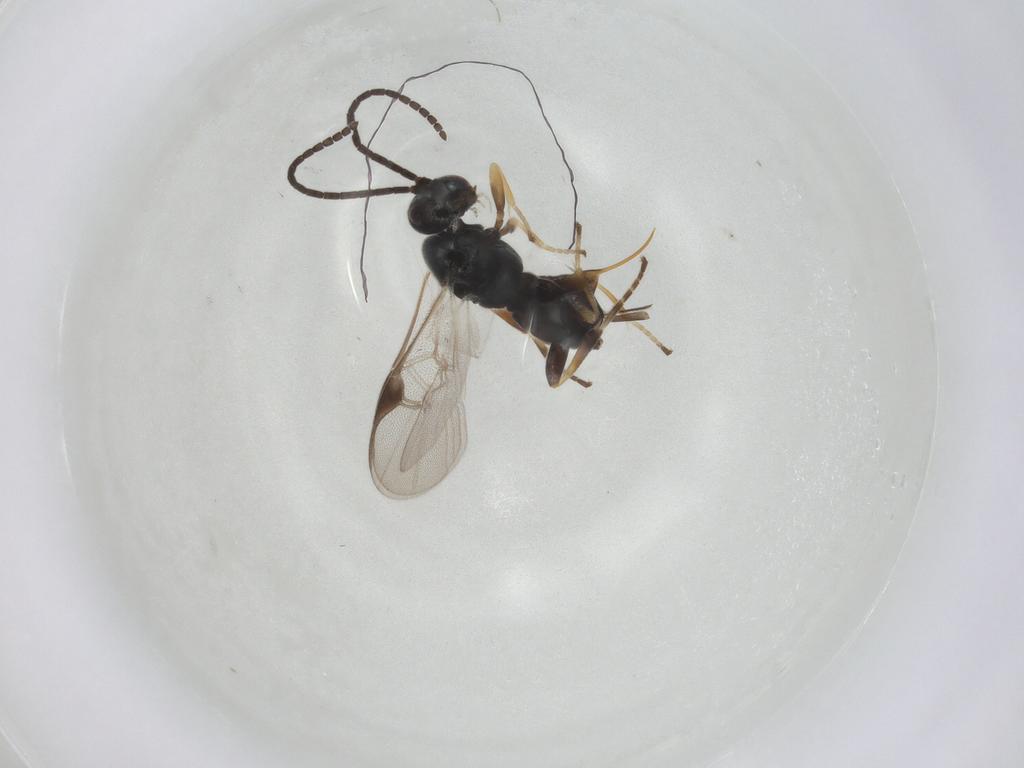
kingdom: Animalia
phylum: Arthropoda
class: Insecta
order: Hymenoptera
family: Braconidae
